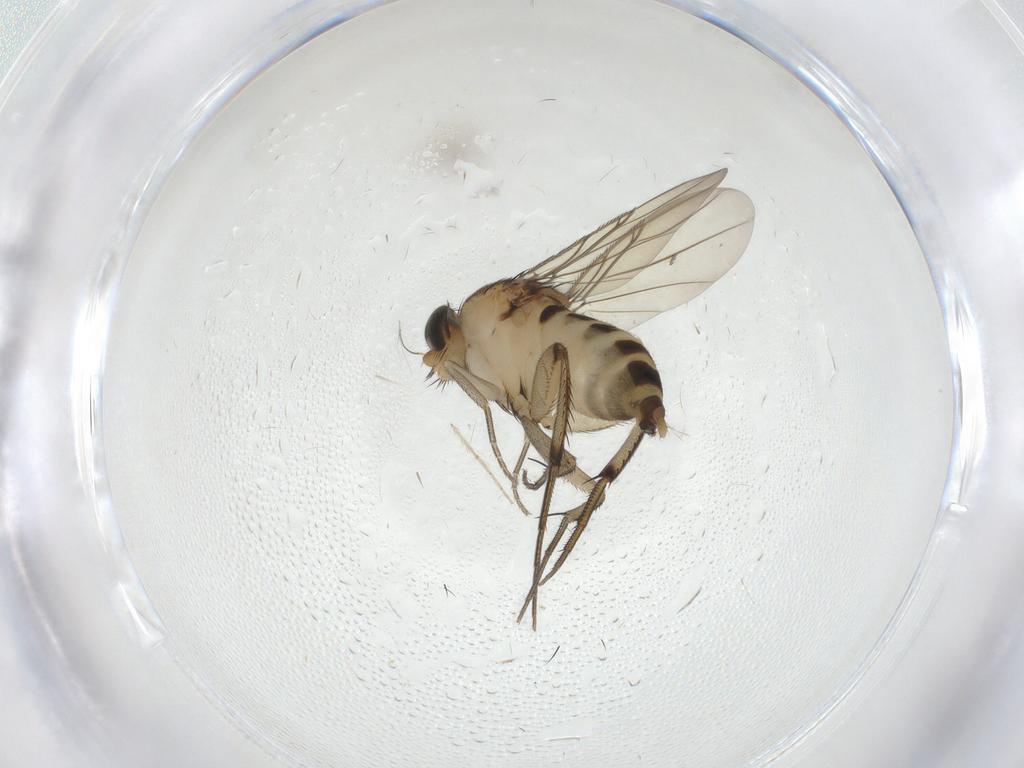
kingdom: Animalia
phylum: Arthropoda
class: Insecta
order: Diptera
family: Phoridae
